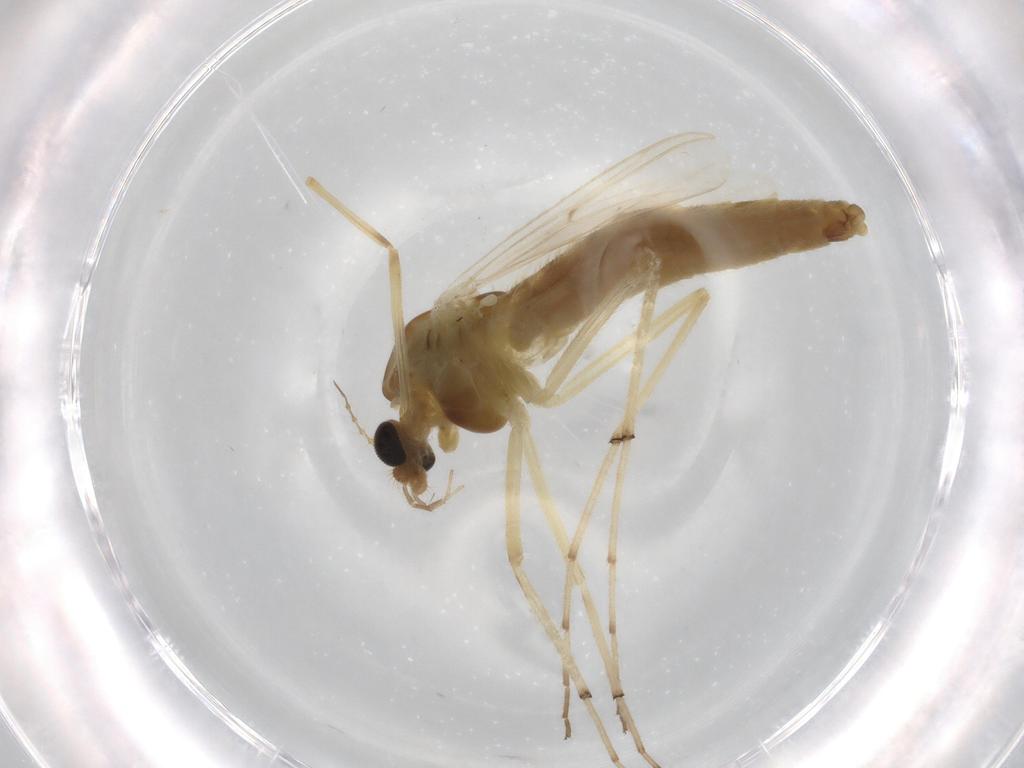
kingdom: Animalia
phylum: Arthropoda
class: Insecta
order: Diptera
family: Chironomidae
